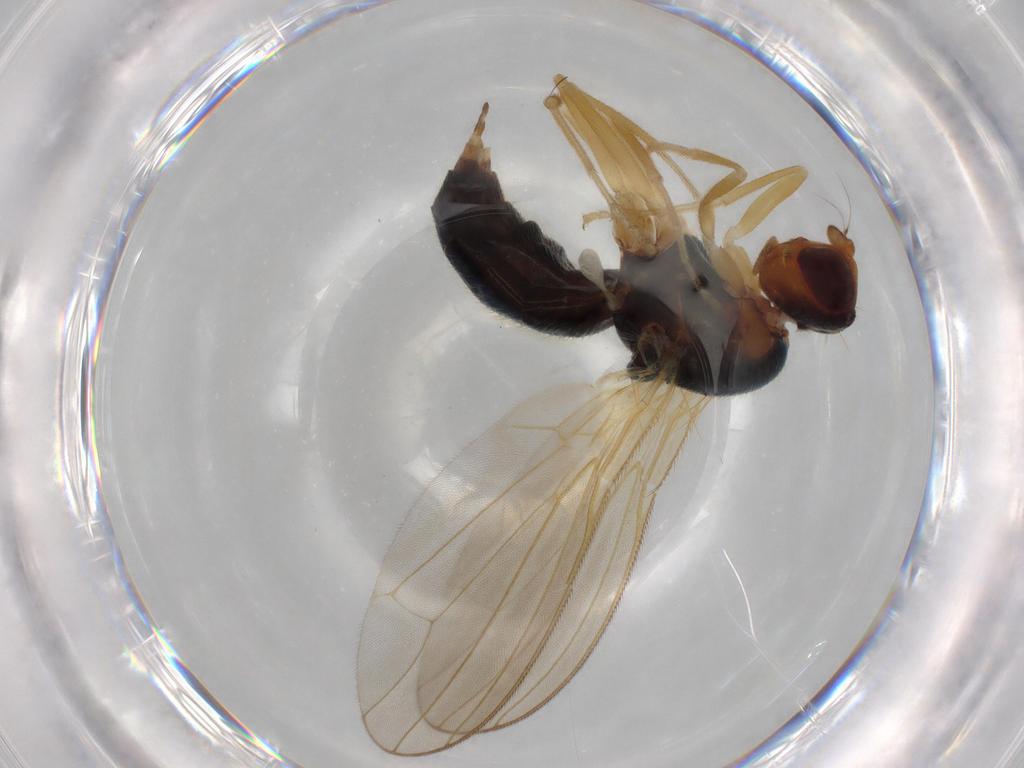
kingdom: Animalia
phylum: Arthropoda
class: Insecta
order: Diptera
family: Psilidae
